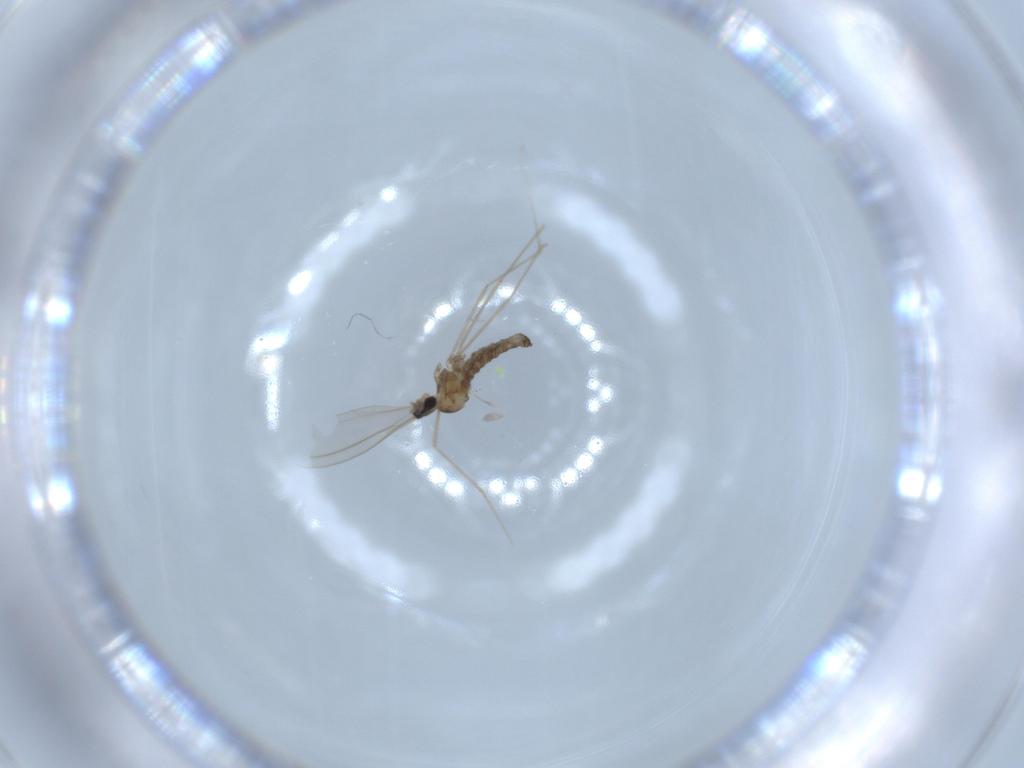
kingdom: Animalia
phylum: Arthropoda
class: Insecta
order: Diptera
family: Cecidomyiidae
